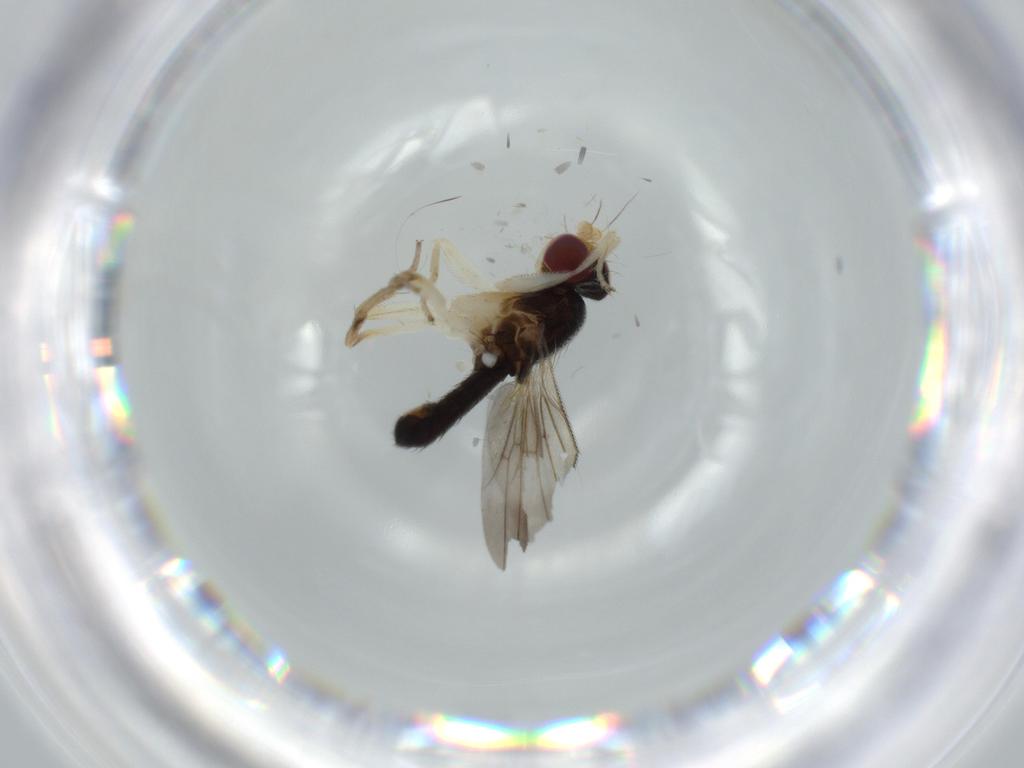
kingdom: Animalia
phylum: Arthropoda
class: Insecta
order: Diptera
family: Clusiidae
